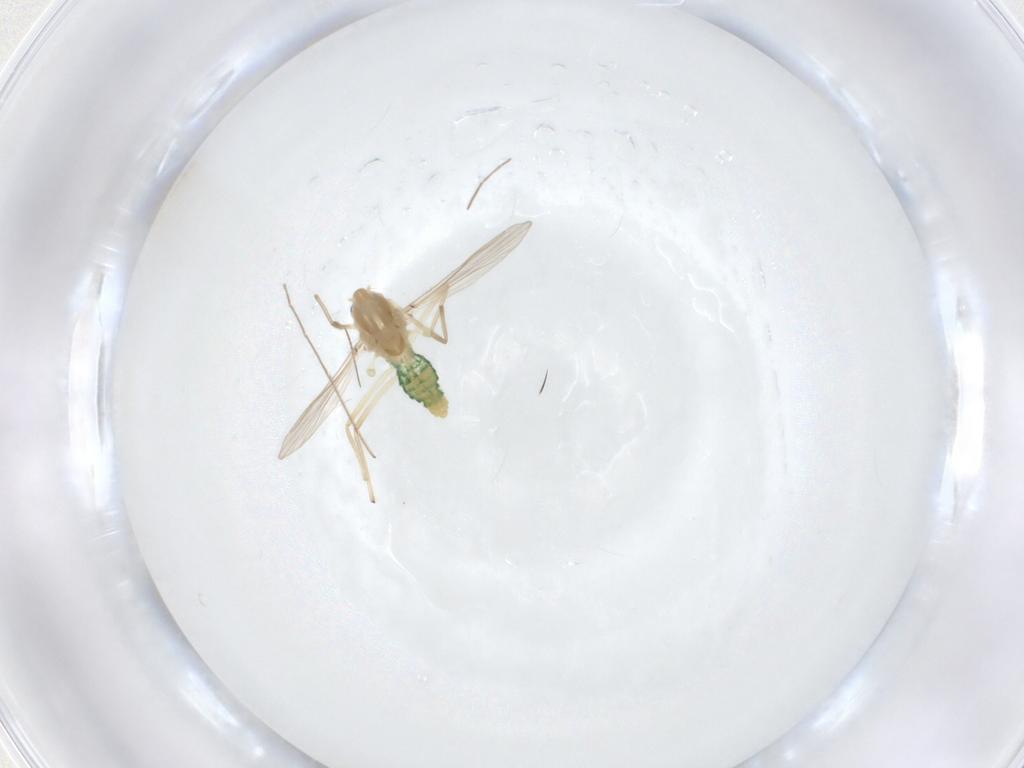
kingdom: Animalia
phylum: Arthropoda
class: Insecta
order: Diptera
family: Chironomidae
